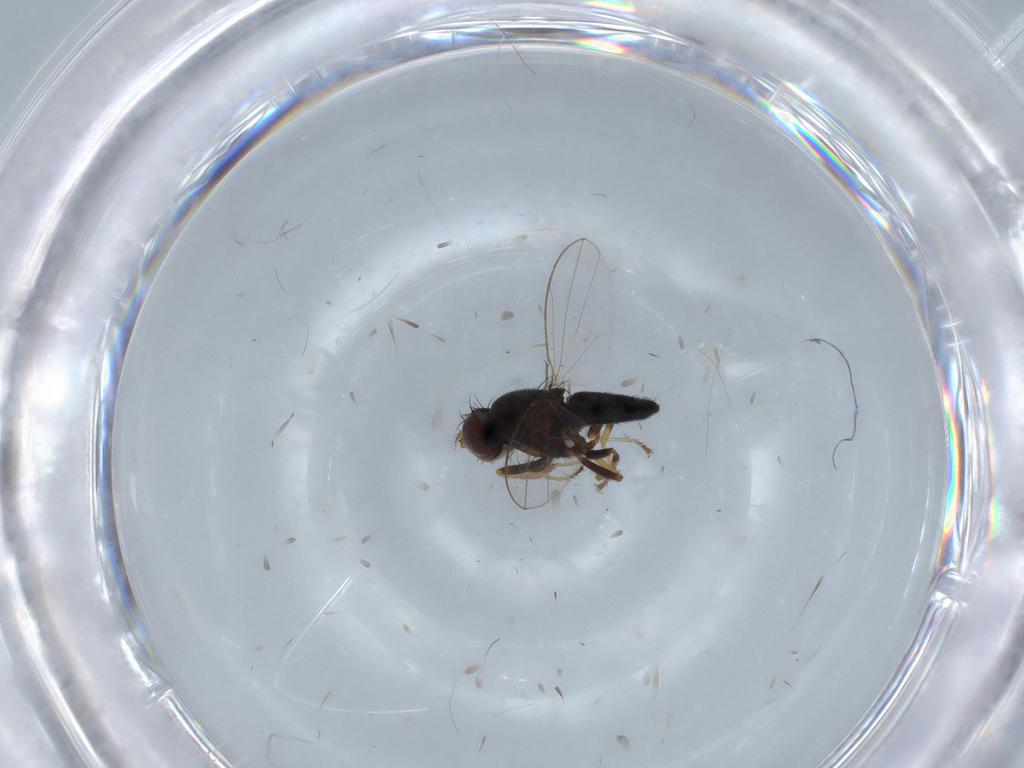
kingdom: Animalia
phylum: Arthropoda
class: Insecta
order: Diptera
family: Ephydridae
